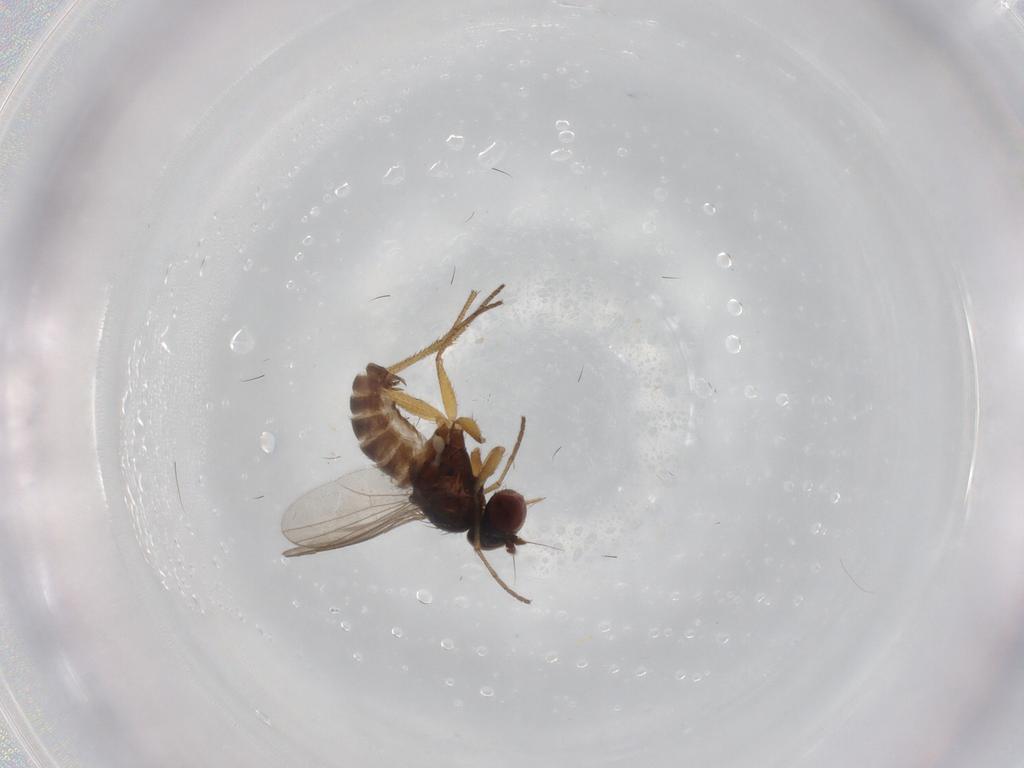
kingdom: Animalia
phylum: Arthropoda
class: Insecta
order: Diptera
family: Dolichopodidae
